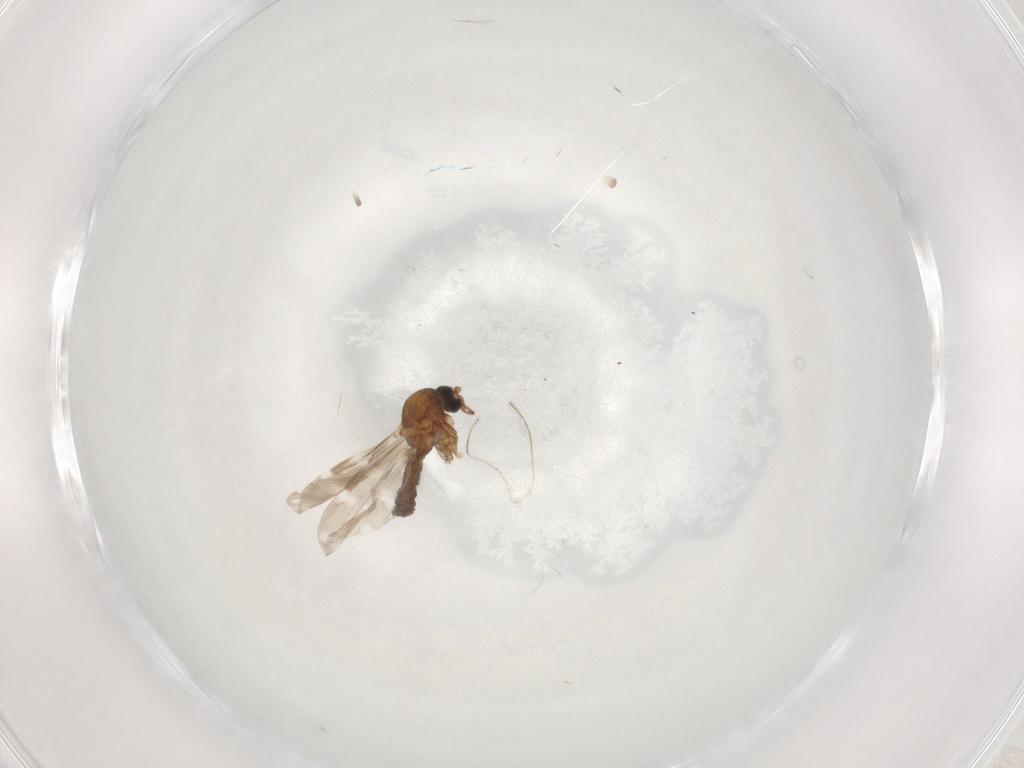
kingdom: Animalia
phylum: Arthropoda
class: Insecta
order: Diptera
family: Ceratopogonidae
